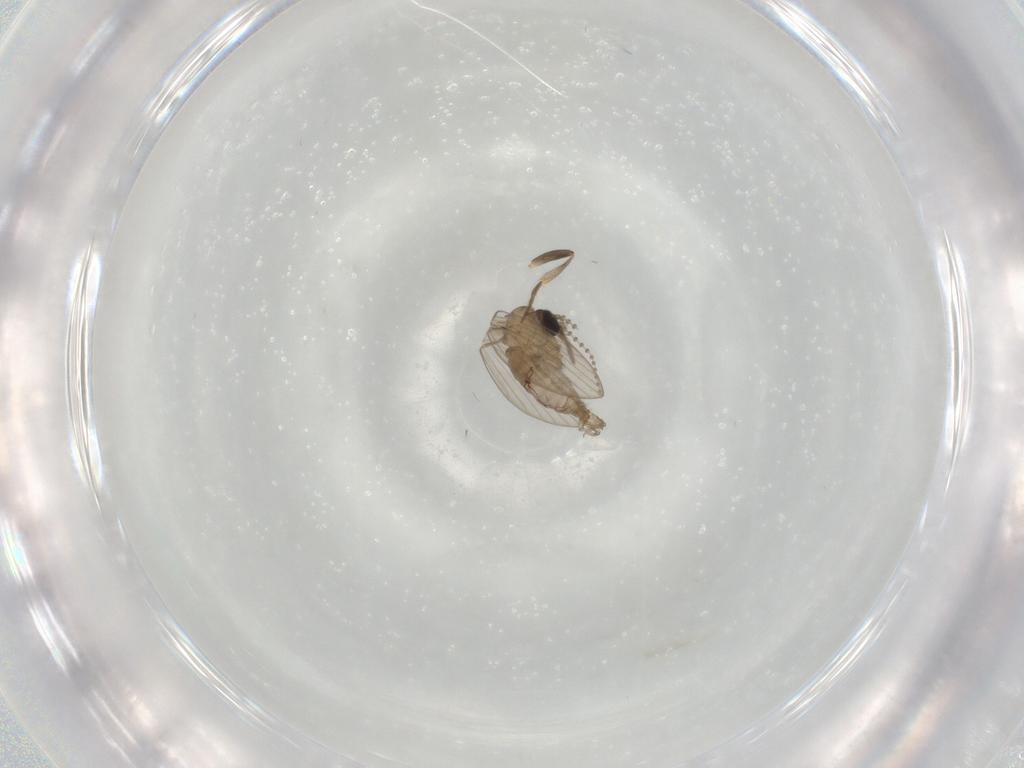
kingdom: Animalia
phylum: Arthropoda
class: Insecta
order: Diptera
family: Psychodidae
